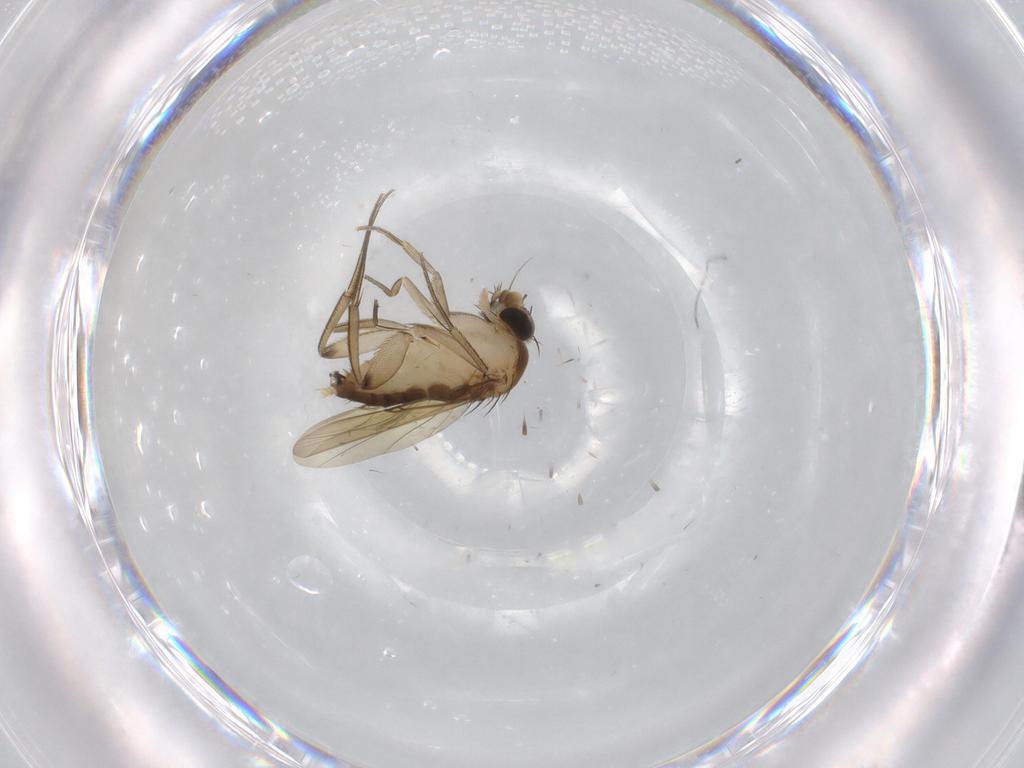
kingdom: Animalia
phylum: Arthropoda
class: Insecta
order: Diptera
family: Phoridae
